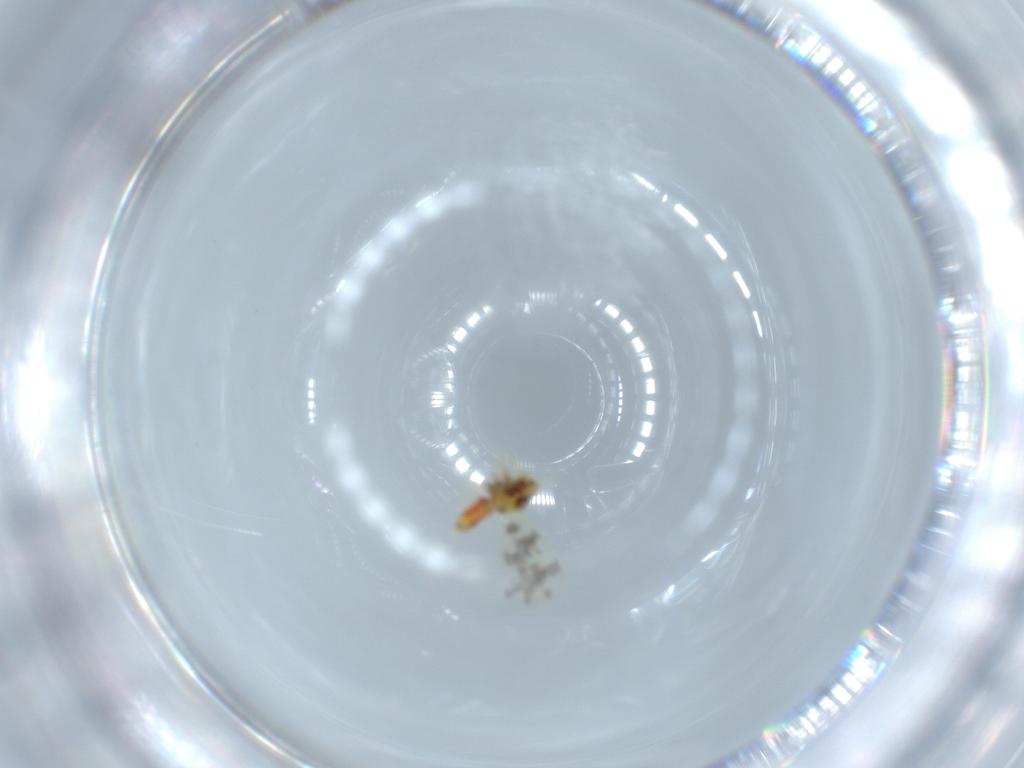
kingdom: Animalia
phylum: Arthropoda
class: Insecta
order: Hemiptera
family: Aleyrodidae
